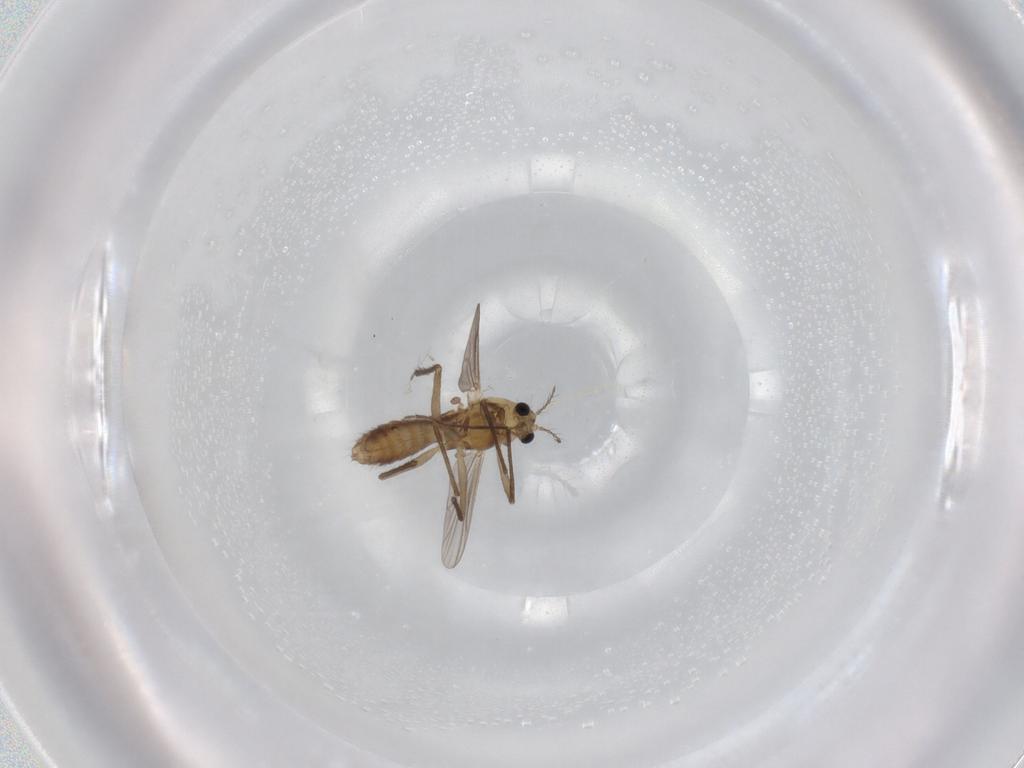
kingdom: Animalia
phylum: Arthropoda
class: Insecta
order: Diptera
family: Chironomidae
